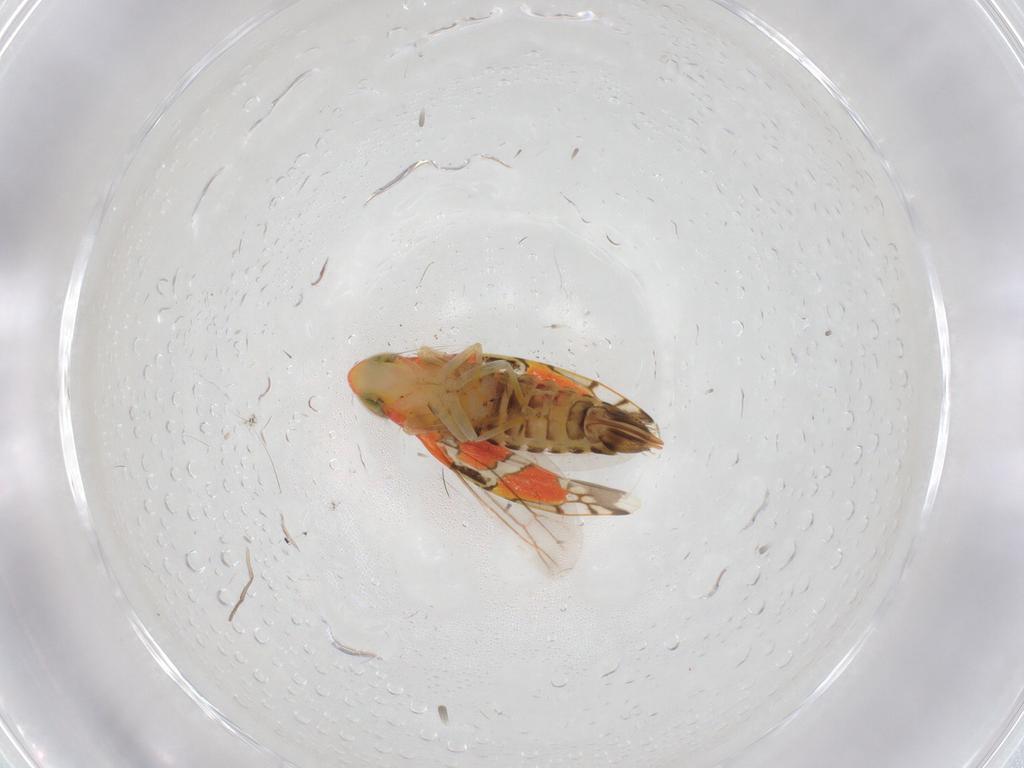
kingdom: Animalia
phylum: Arthropoda
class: Insecta
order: Hemiptera
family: Cicadellidae
